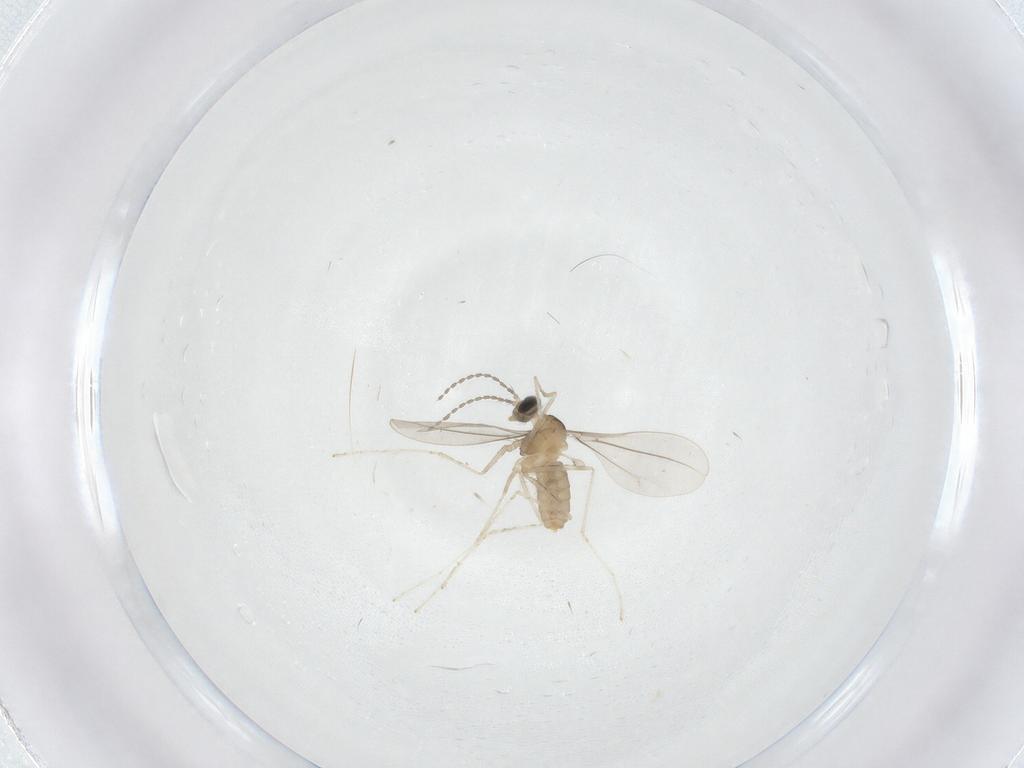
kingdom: Animalia
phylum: Arthropoda
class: Insecta
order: Diptera
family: Cecidomyiidae
